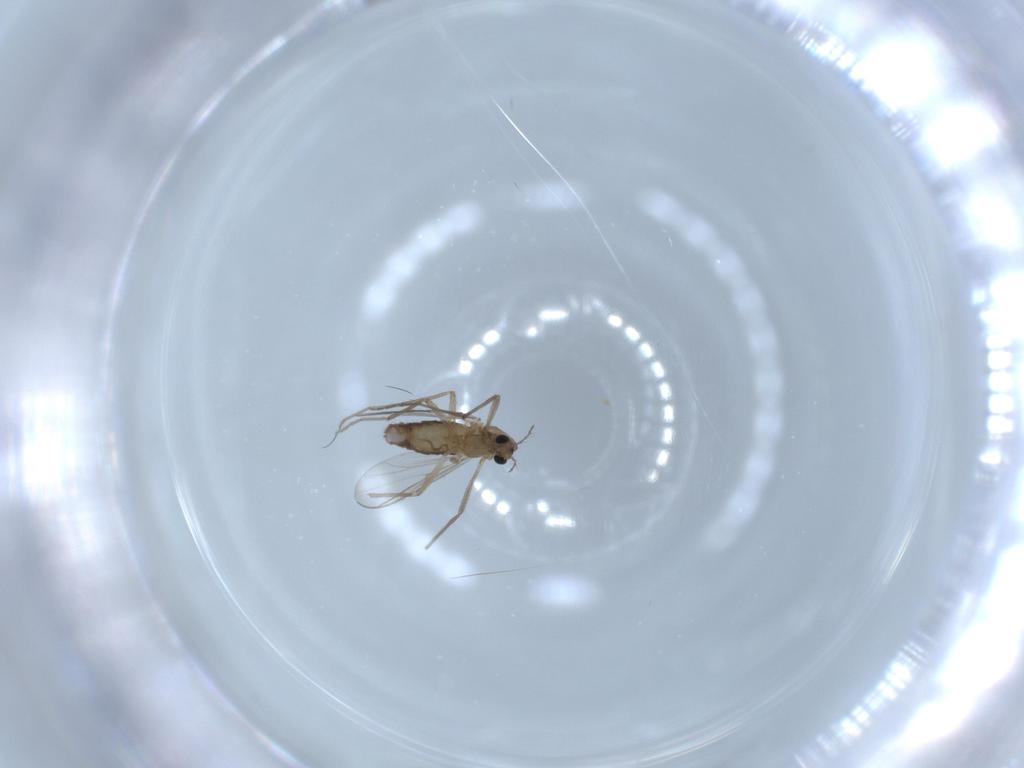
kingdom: Animalia
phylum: Arthropoda
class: Insecta
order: Diptera
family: Chironomidae
